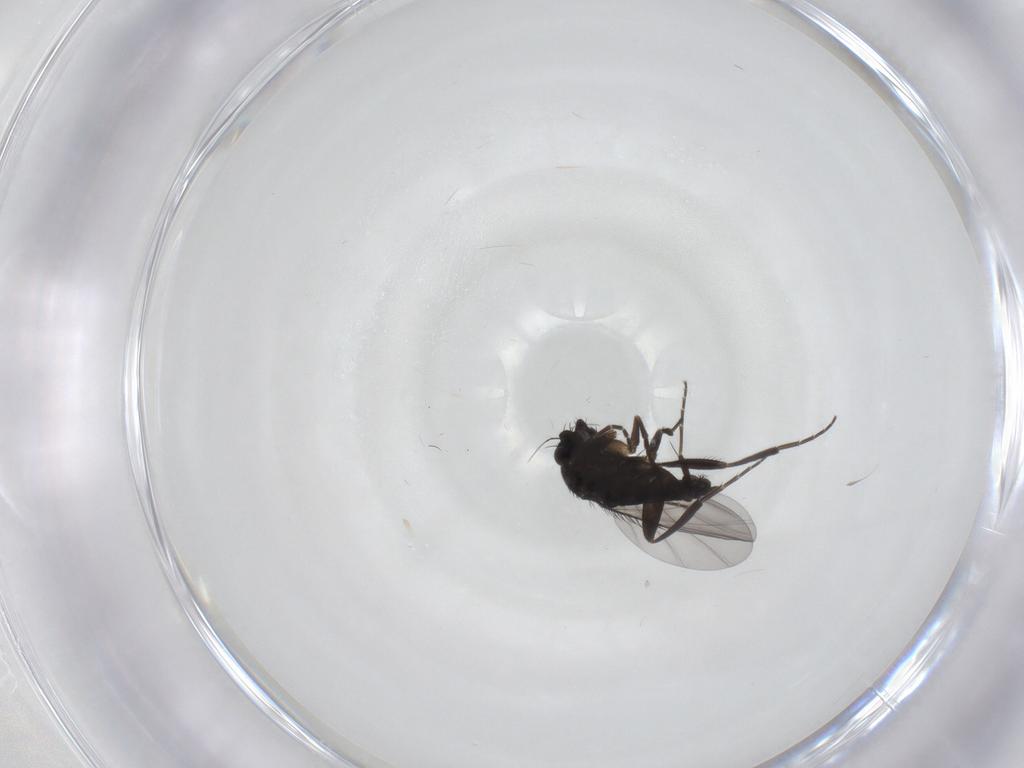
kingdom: Animalia
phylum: Arthropoda
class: Insecta
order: Diptera
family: Phoridae
